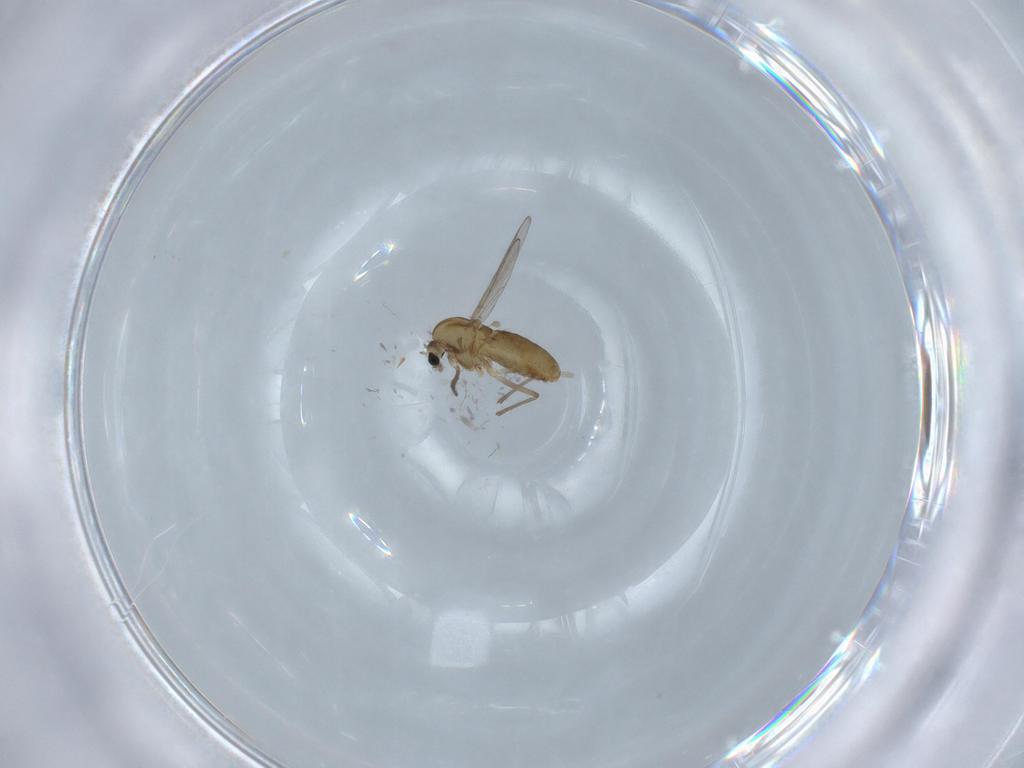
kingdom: Animalia
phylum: Arthropoda
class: Insecta
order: Diptera
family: Chironomidae
